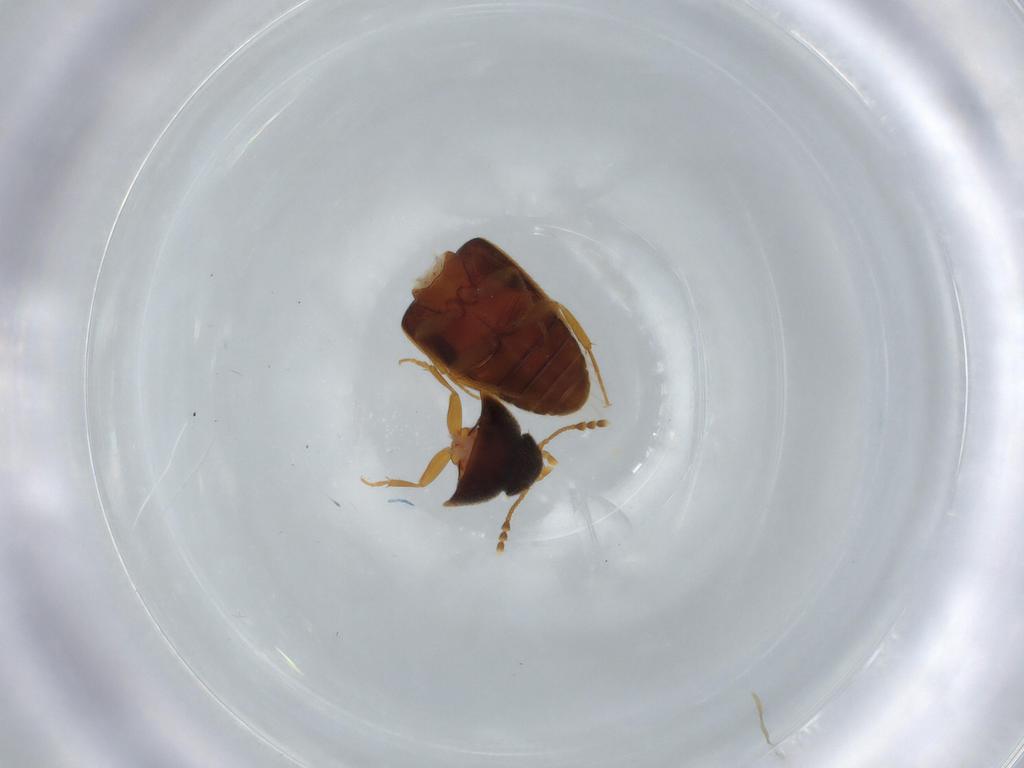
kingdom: Animalia
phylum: Arthropoda
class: Insecta
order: Coleoptera
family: Mycetophagidae
